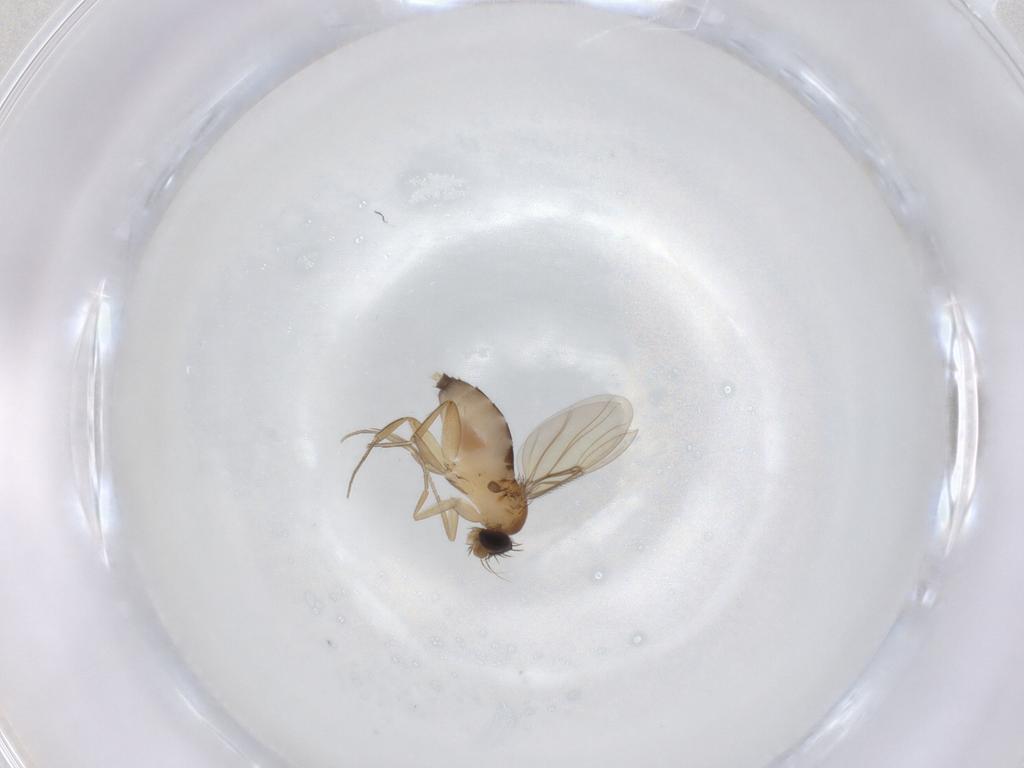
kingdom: Animalia
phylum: Arthropoda
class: Insecta
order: Diptera
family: Phoridae
